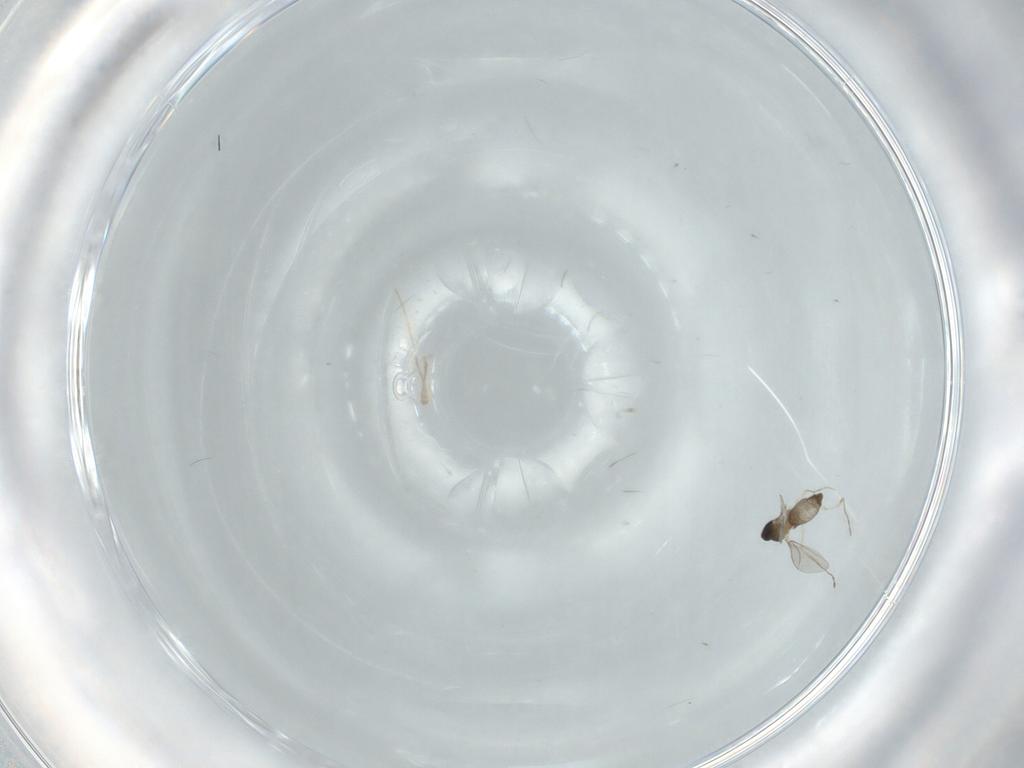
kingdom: Animalia
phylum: Arthropoda
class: Insecta
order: Diptera
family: Cecidomyiidae
